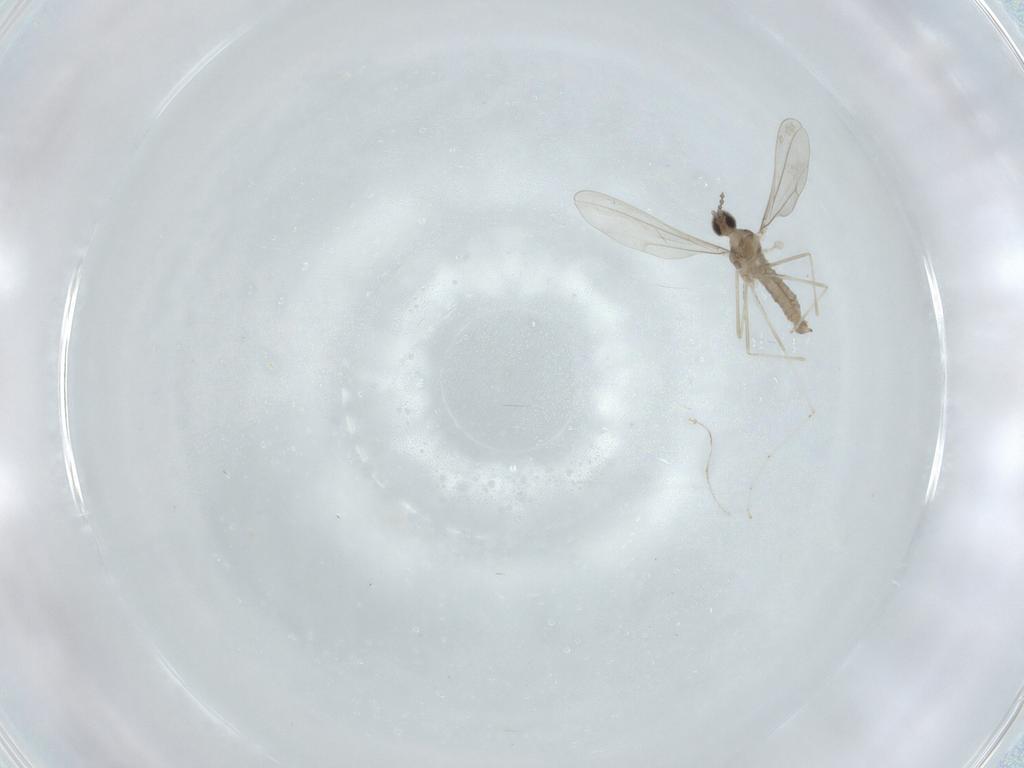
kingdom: Animalia
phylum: Arthropoda
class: Insecta
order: Diptera
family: Cecidomyiidae
